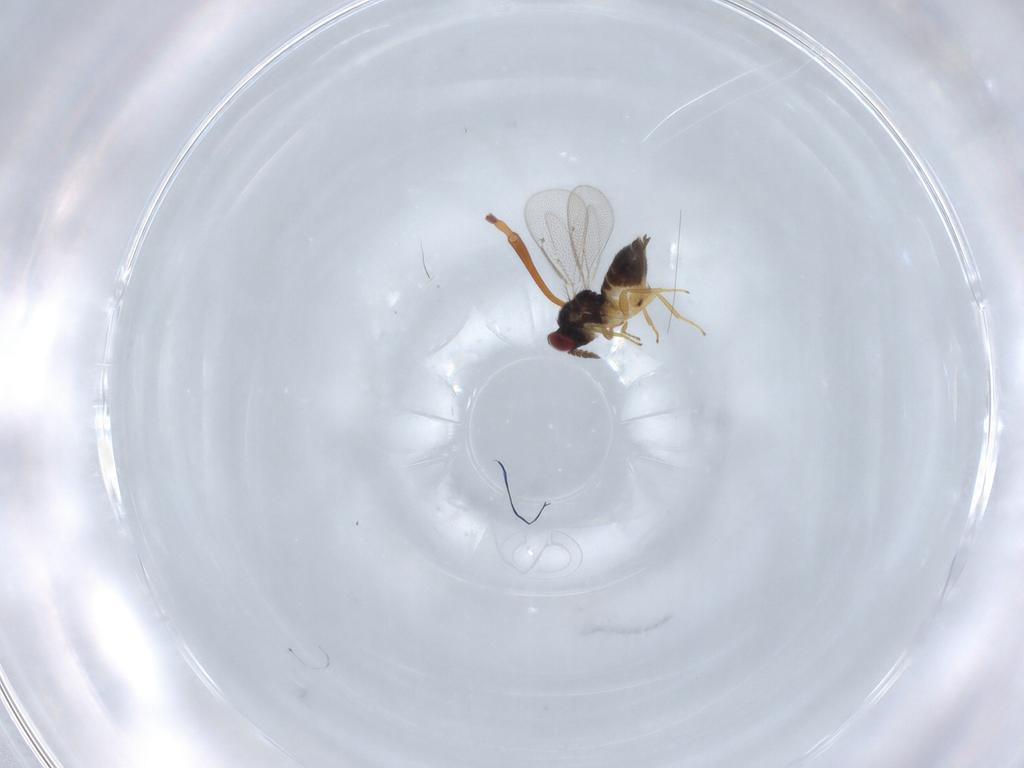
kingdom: Animalia
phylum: Arthropoda
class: Insecta
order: Hymenoptera
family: Eulophidae
